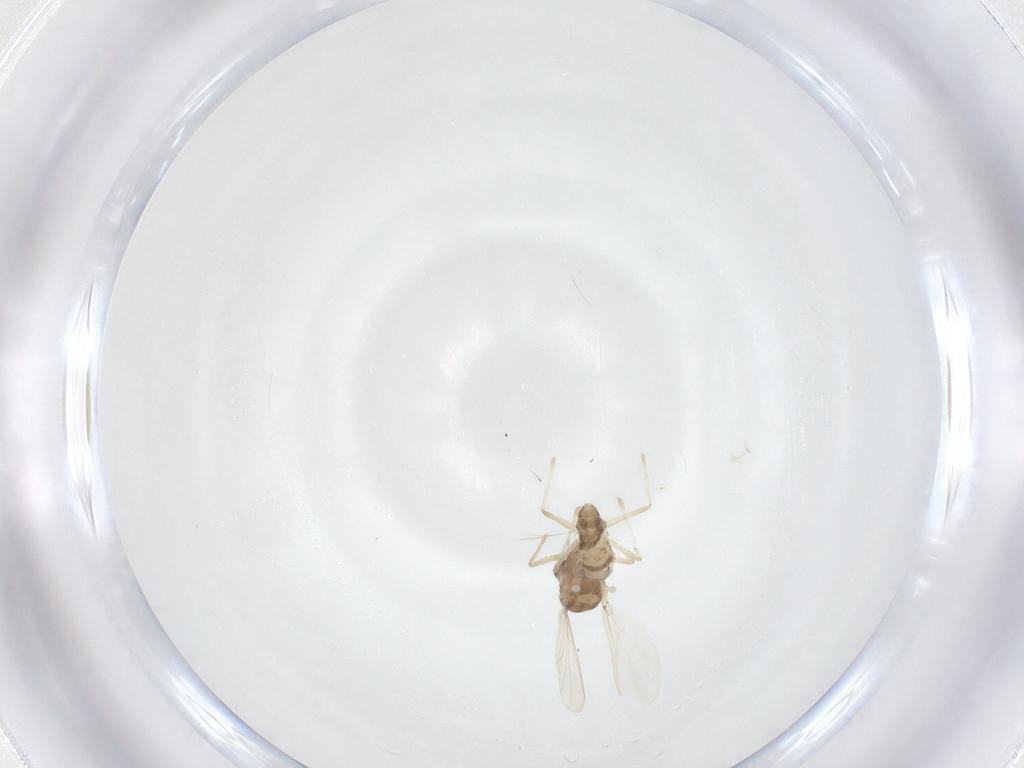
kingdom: Animalia
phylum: Arthropoda
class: Insecta
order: Diptera
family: Chironomidae
